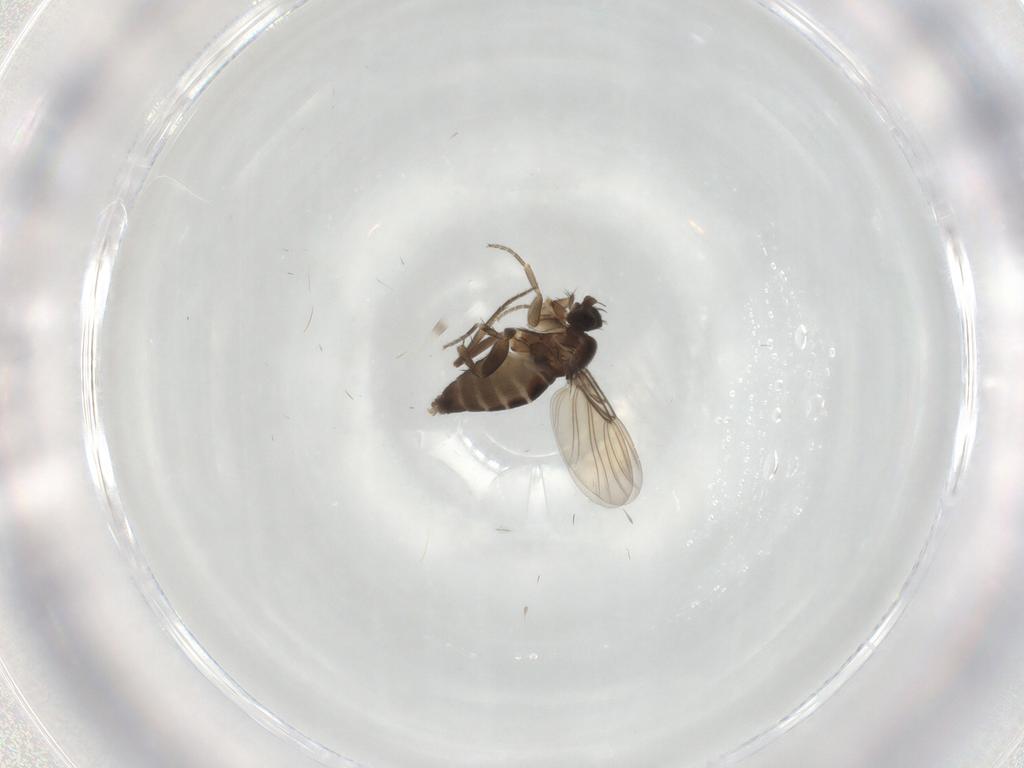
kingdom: Animalia
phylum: Arthropoda
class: Insecta
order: Diptera
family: Phoridae
